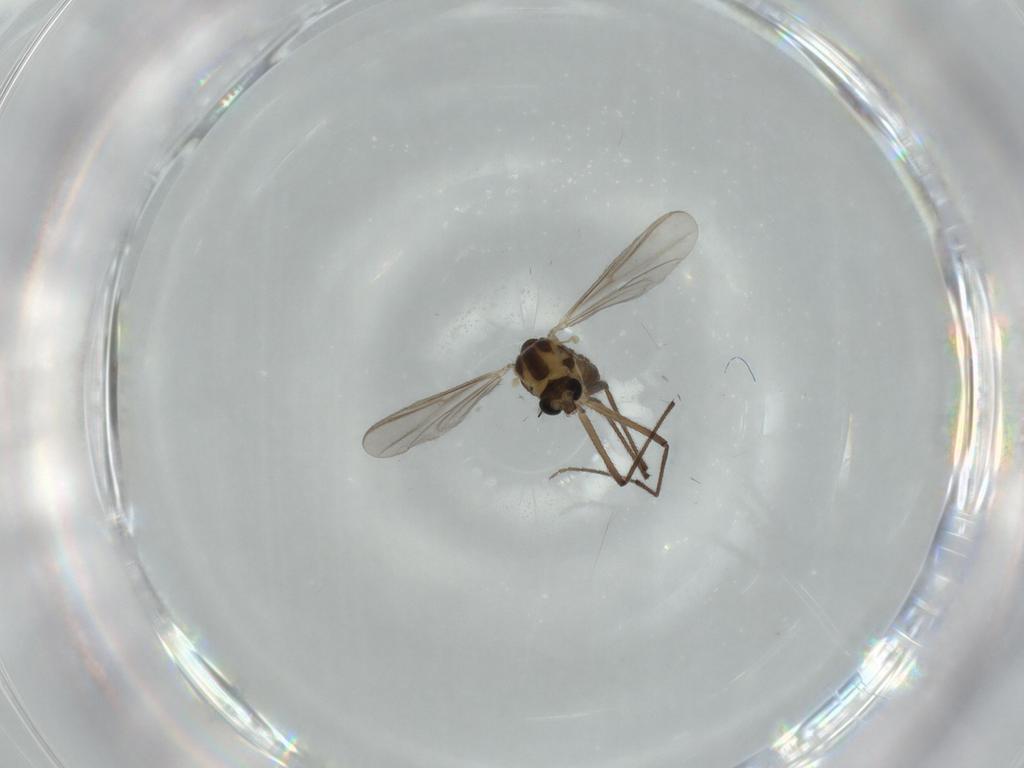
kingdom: Animalia
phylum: Arthropoda
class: Insecta
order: Diptera
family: Chironomidae
